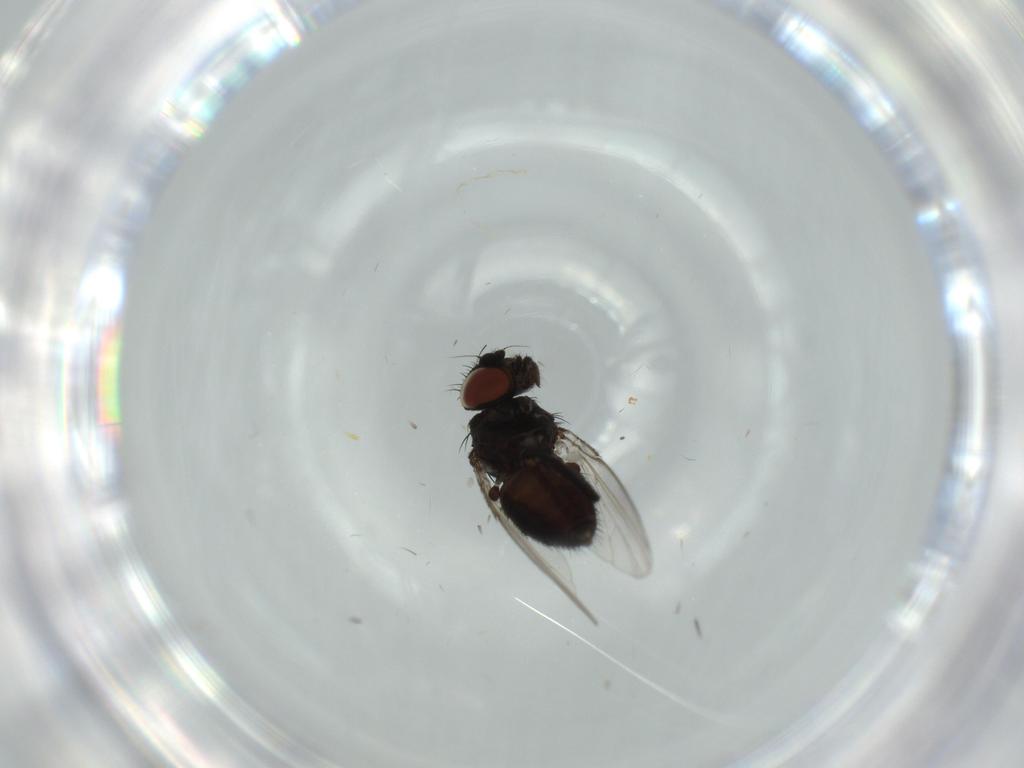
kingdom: Animalia
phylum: Arthropoda
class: Insecta
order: Diptera
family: Milichiidae
